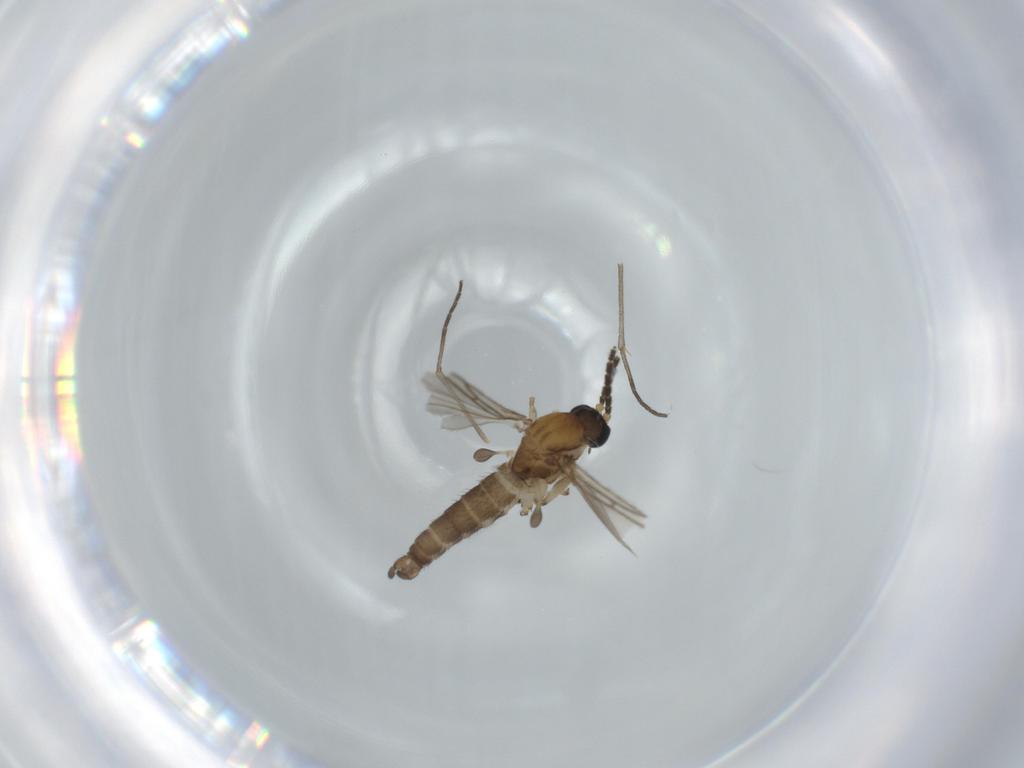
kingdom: Animalia
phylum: Arthropoda
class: Insecta
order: Diptera
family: Sciaridae
